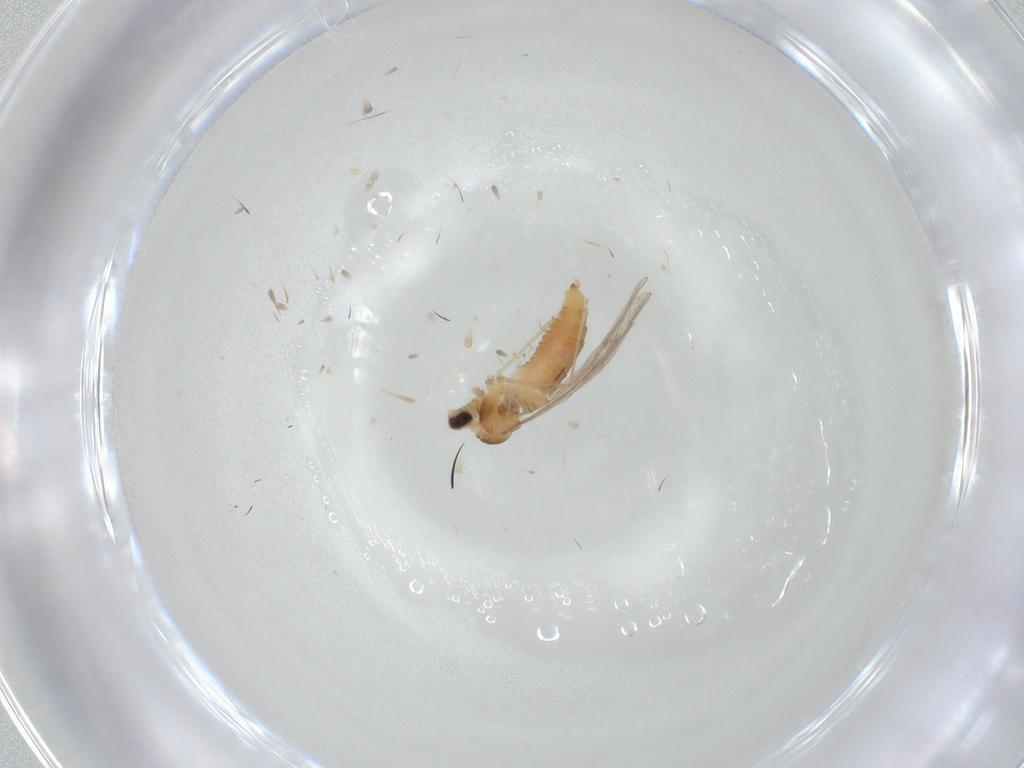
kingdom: Animalia
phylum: Arthropoda
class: Insecta
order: Diptera
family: Cecidomyiidae
